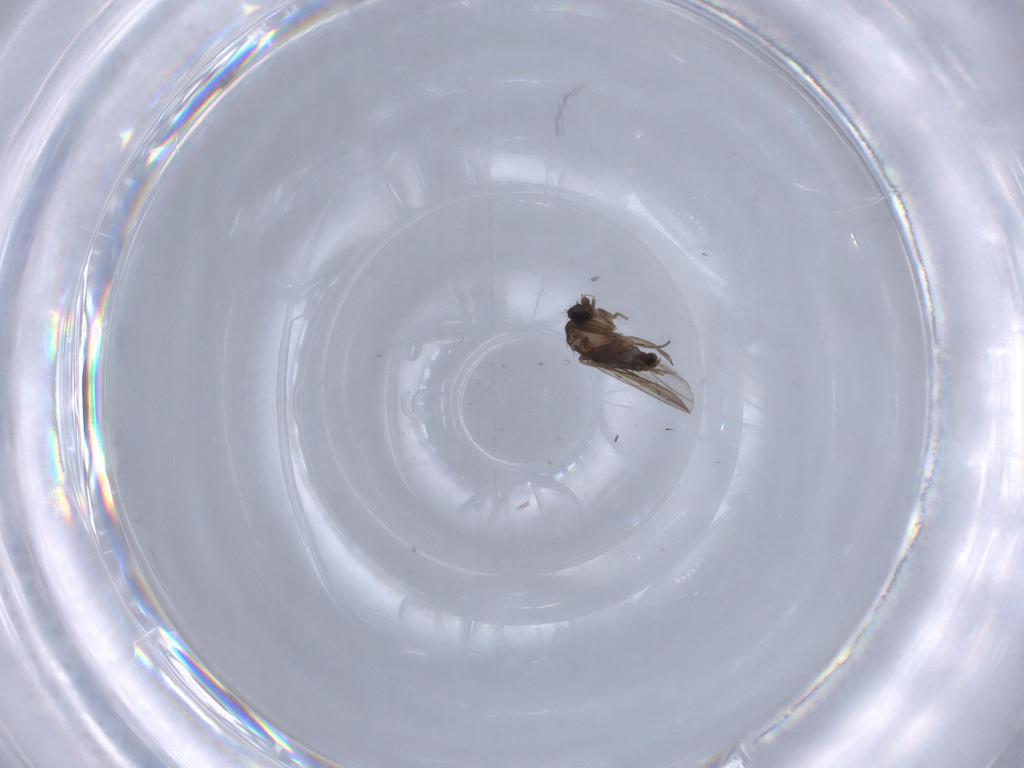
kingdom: Animalia
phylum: Arthropoda
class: Insecta
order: Diptera
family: Phoridae
